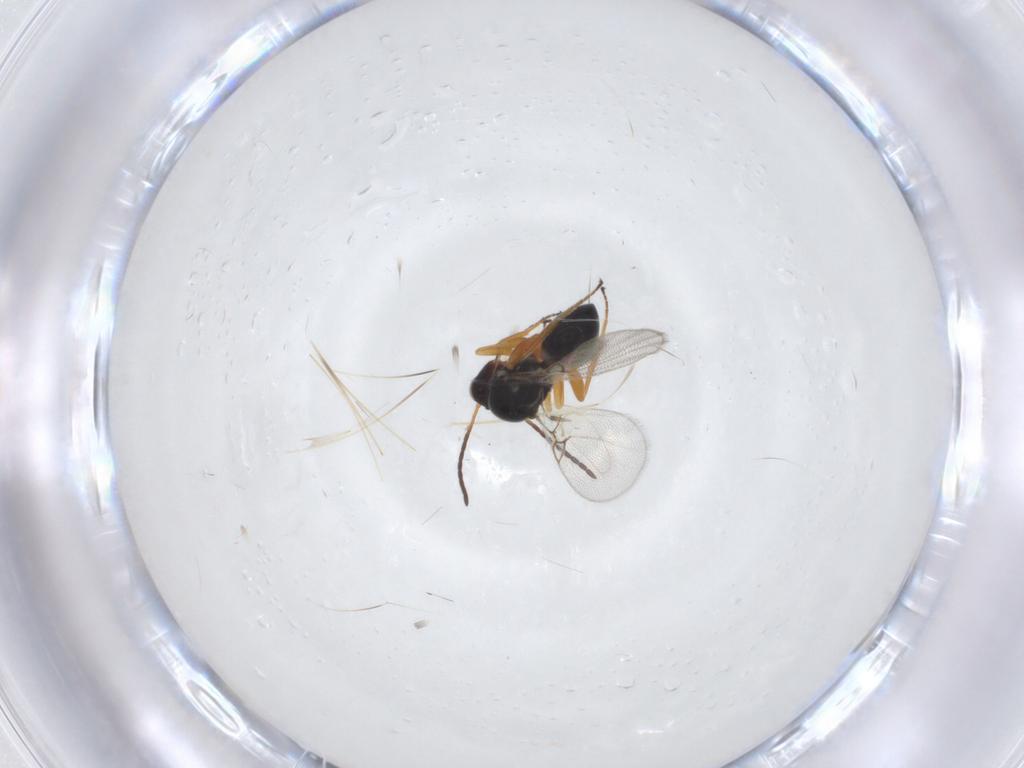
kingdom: Animalia
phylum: Arthropoda
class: Insecta
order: Hymenoptera
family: Figitidae
